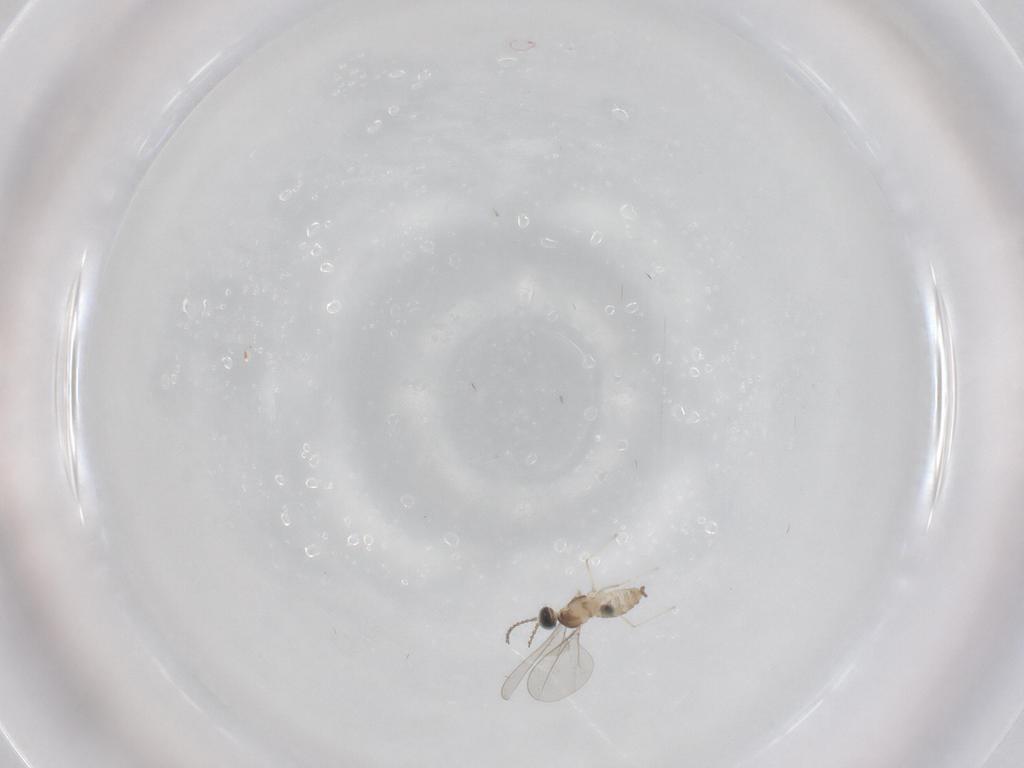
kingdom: Animalia
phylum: Arthropoda
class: Insecta
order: Diptera
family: Cecidomyiidae
